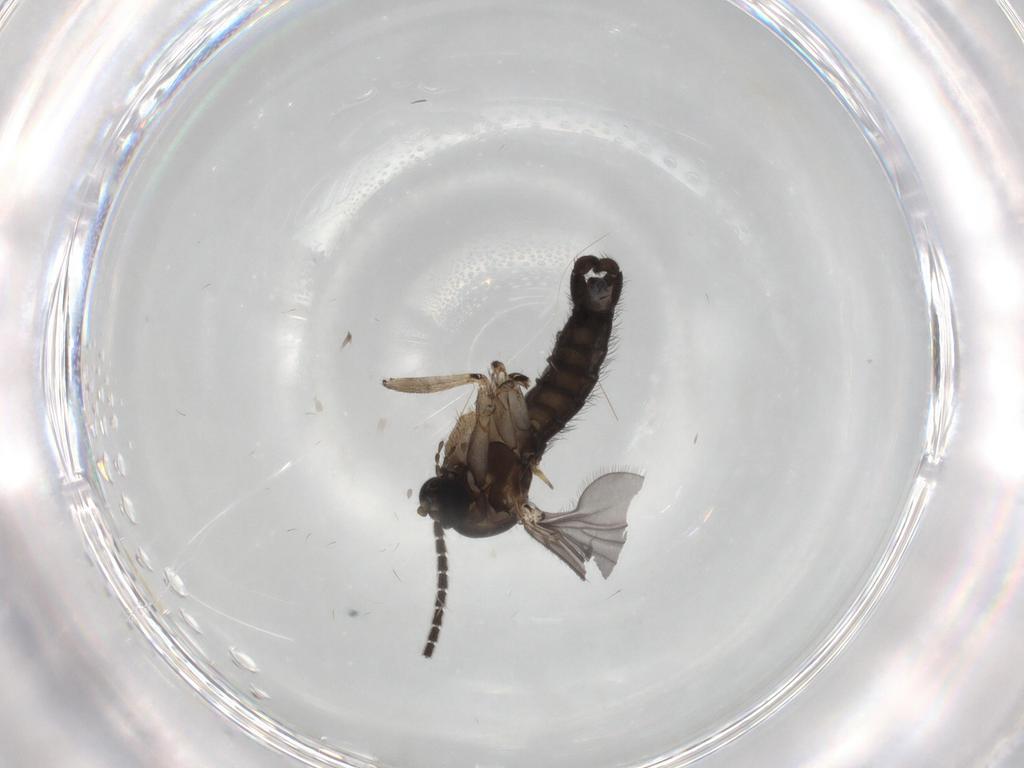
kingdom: Animalia
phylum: Arthropoda
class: Insecta
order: Diptera
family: Sciaridae
